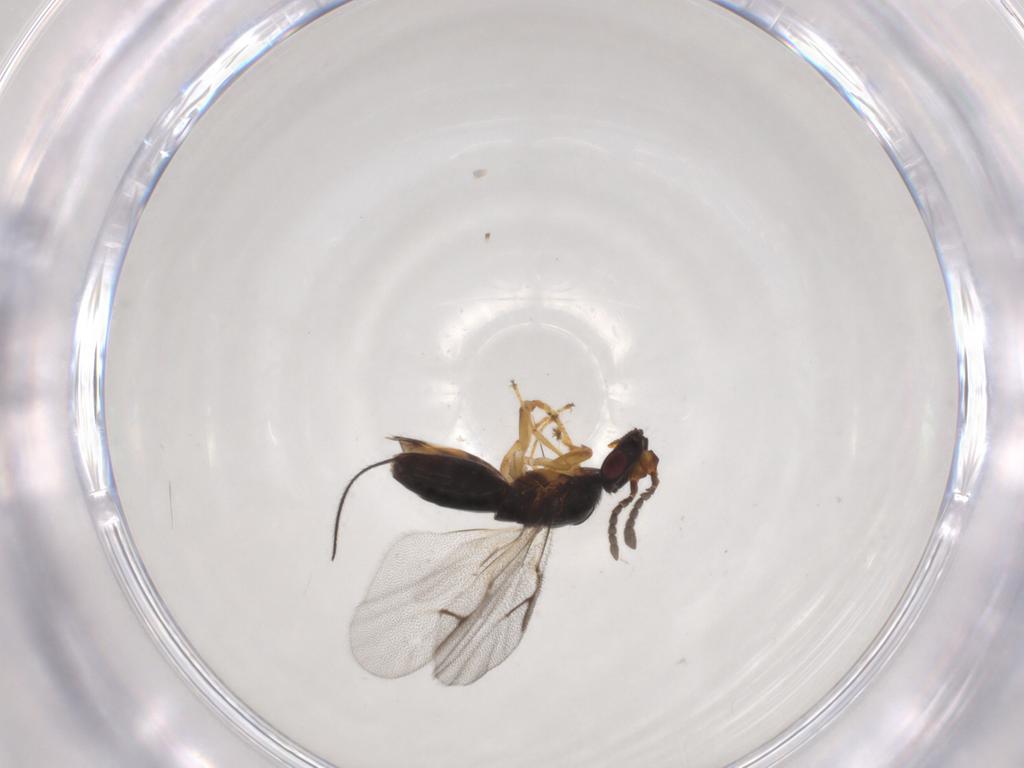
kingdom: Animalia
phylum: Arthropoda
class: Insecta
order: Hymenoptera
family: Agaonidae
